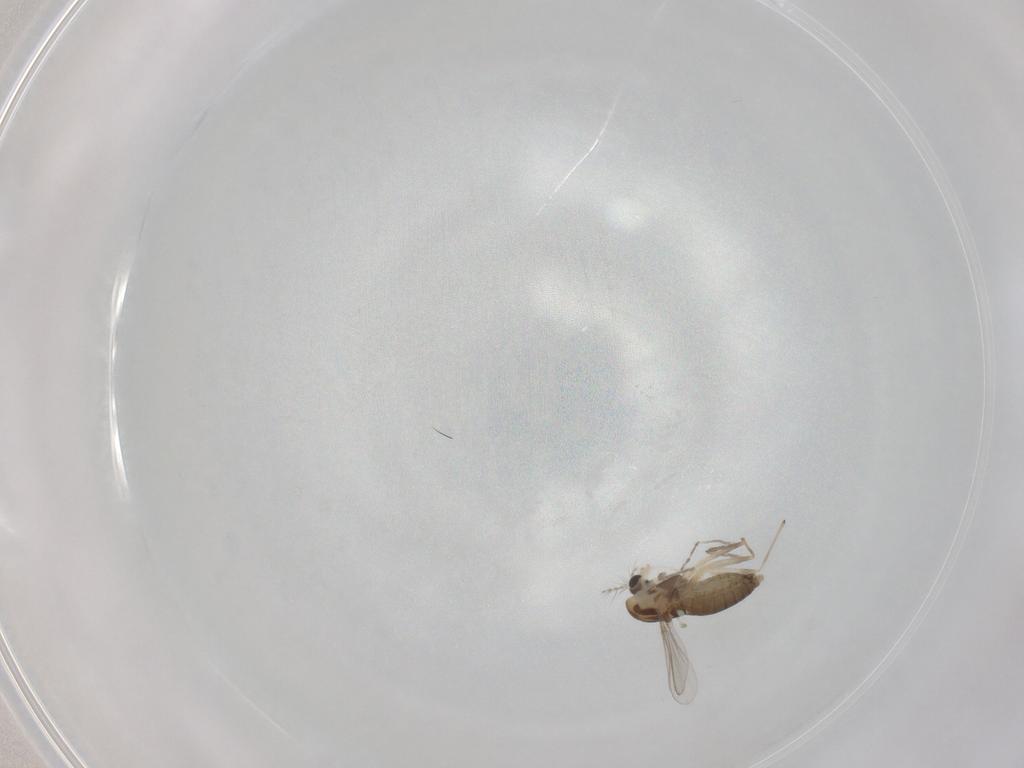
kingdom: Animalia
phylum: Arthropoda
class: Insecta
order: Diptera
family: Chironomidae
